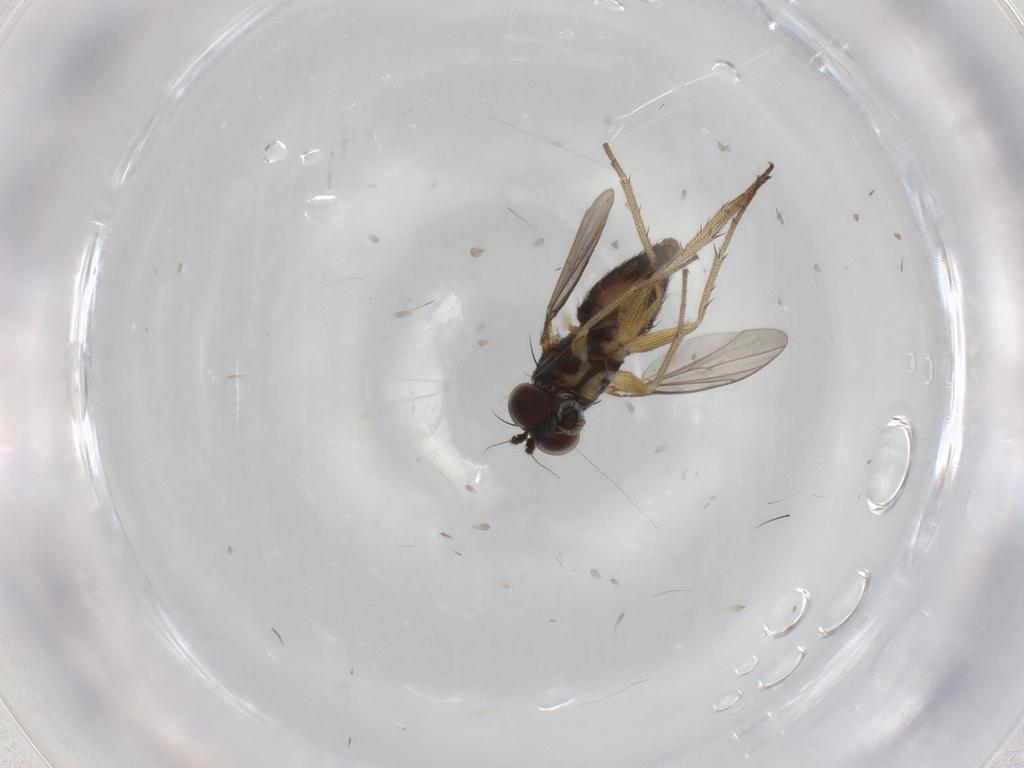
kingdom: Animalia
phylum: Arthropoda
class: Insecta
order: Diptera
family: Dolichopodidae
